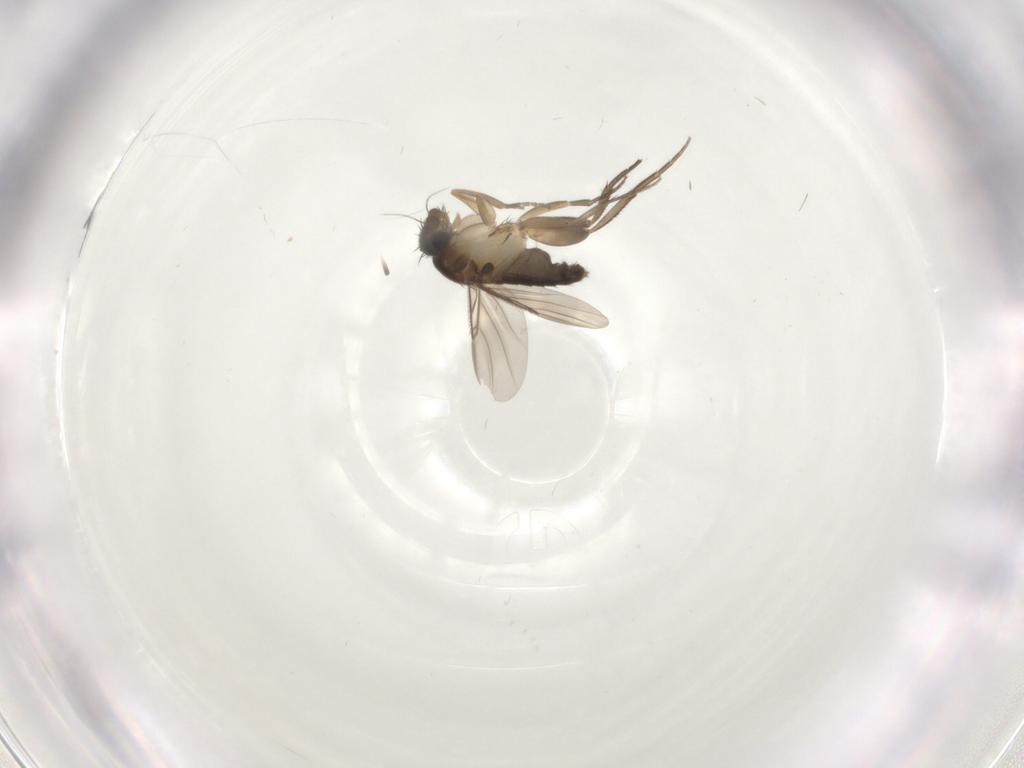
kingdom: Animalia
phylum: Arthropoda
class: Insecta
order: Diptera
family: Phoridae
